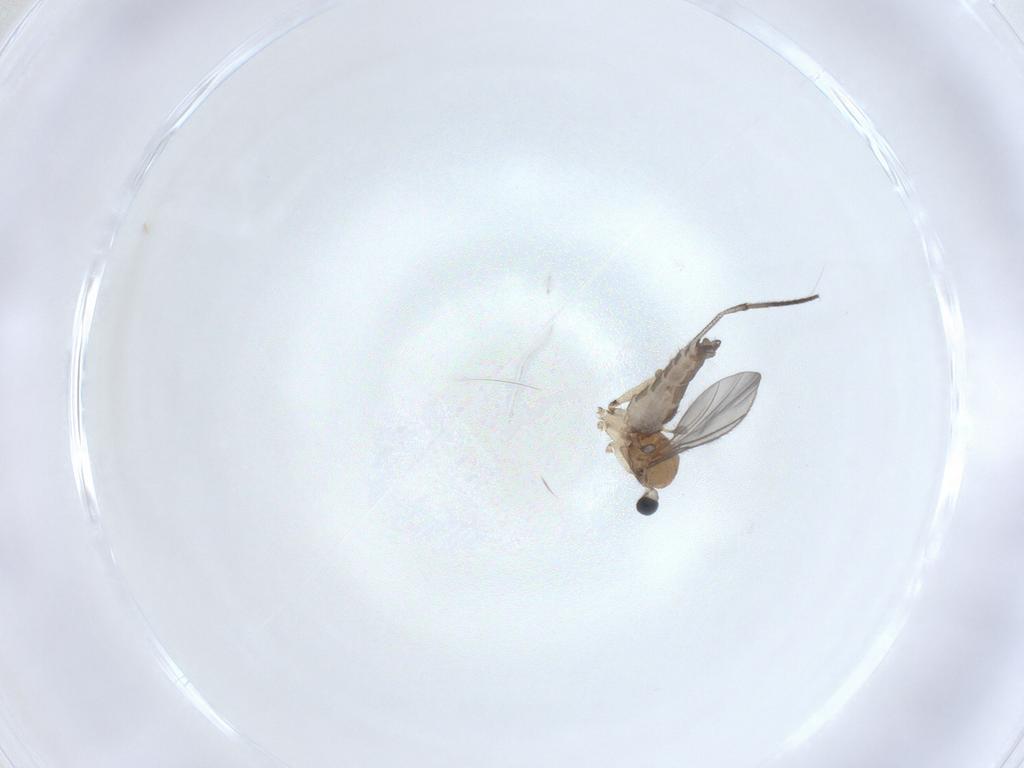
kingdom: Animalia
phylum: Arthropoda
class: Insecta
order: Diptera
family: Sciaridae
